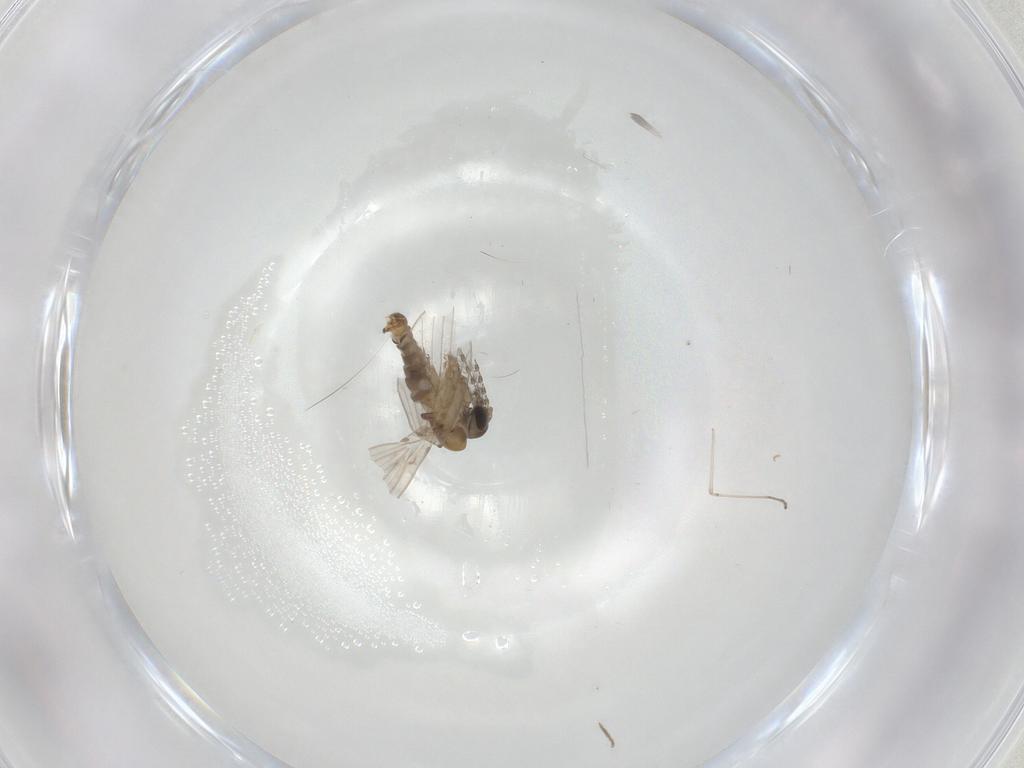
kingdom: Animalia
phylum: Arthropoda
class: Insecta
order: Diptera
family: Cecidomyiidae
